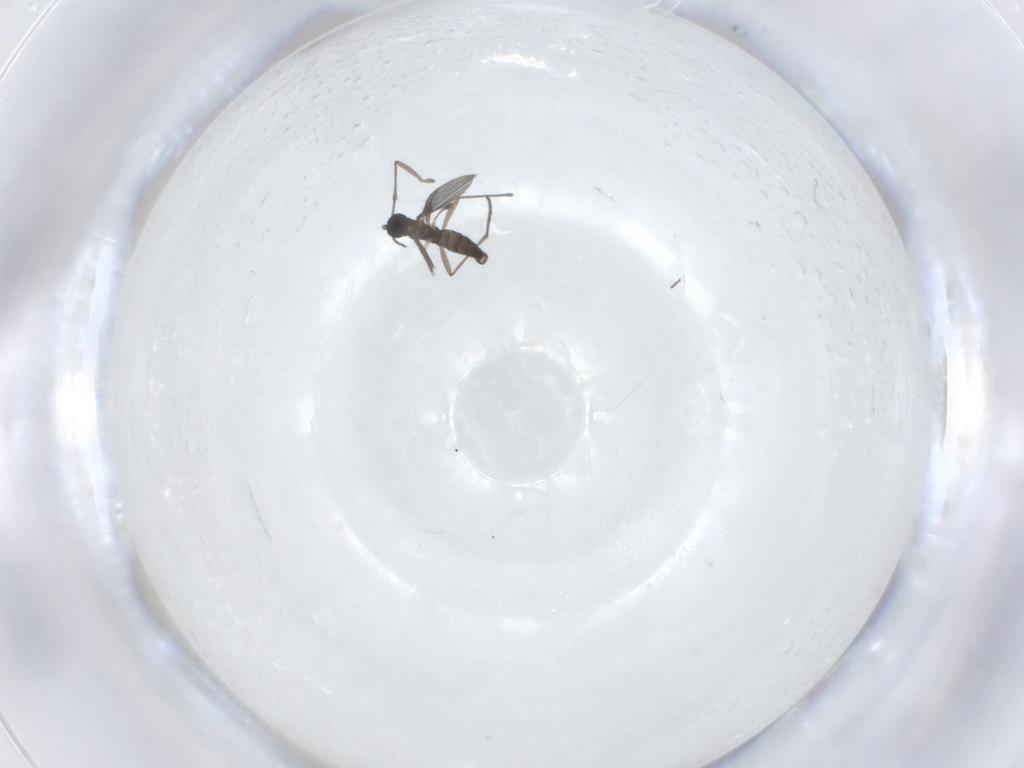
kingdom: Animalia
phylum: Arthropoda
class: Insecta
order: Diptera
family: Sciaridae
